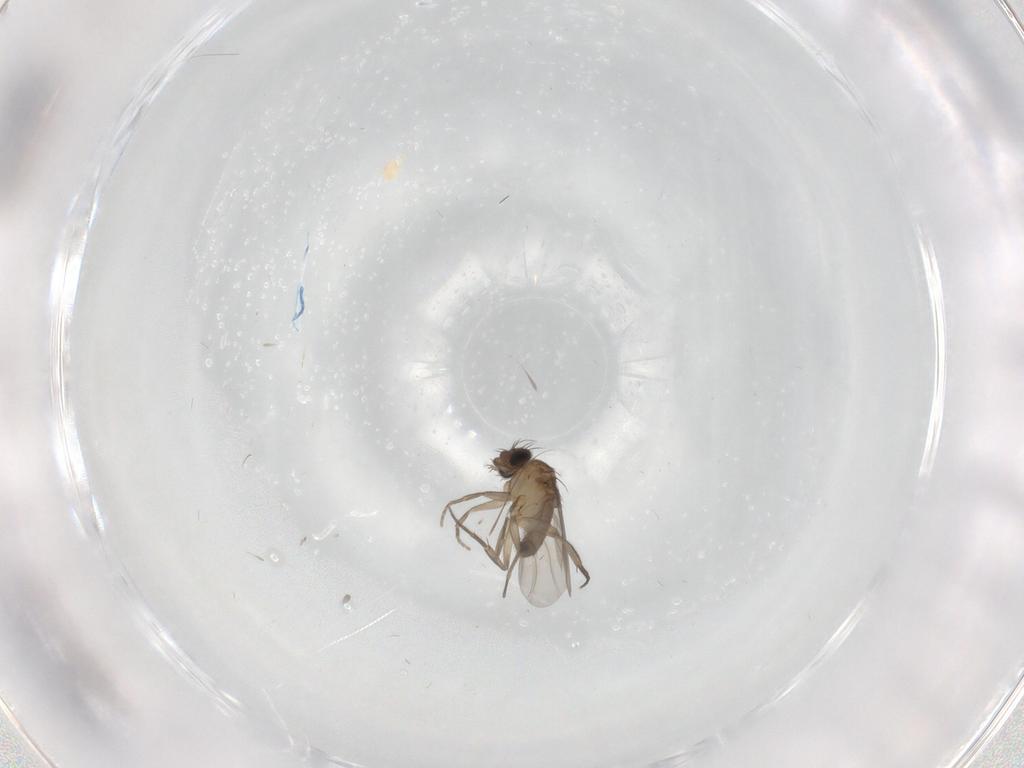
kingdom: Animalia
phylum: Arthropoda
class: Insecta
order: Diptera
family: Phoridae
